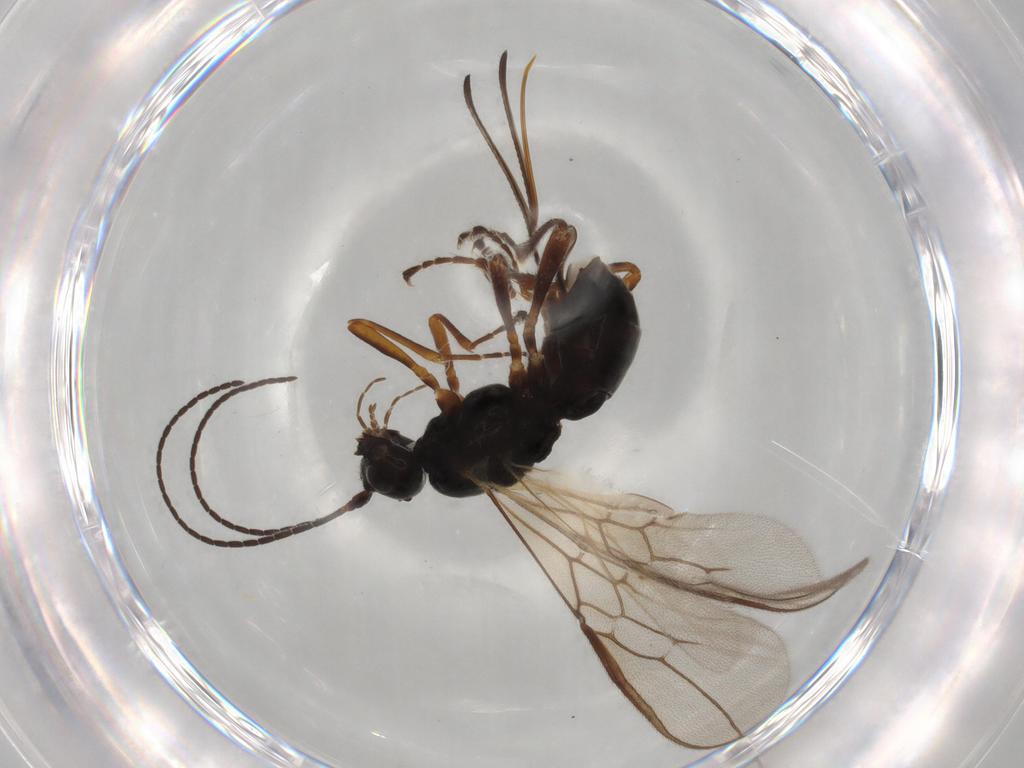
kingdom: Animalia
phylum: Arthropoda
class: Insecta
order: Hymenoptera
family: Braconidae
